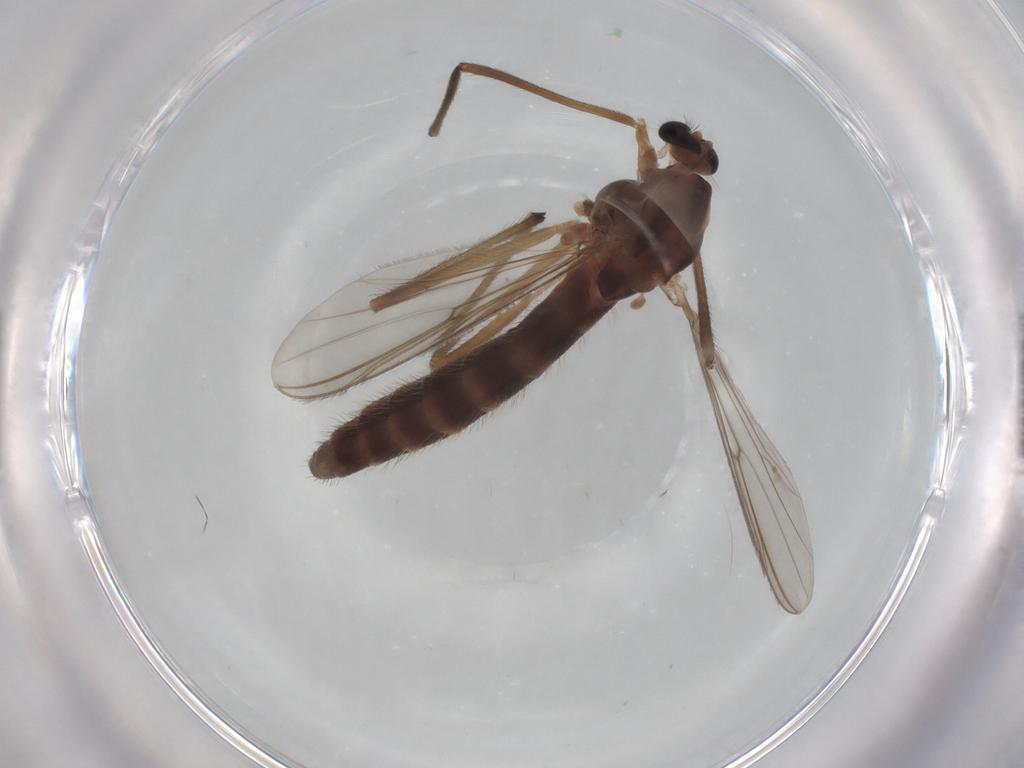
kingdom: Animalia
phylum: Arthropoda
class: Insecta
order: Diptera
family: Chironomidae
